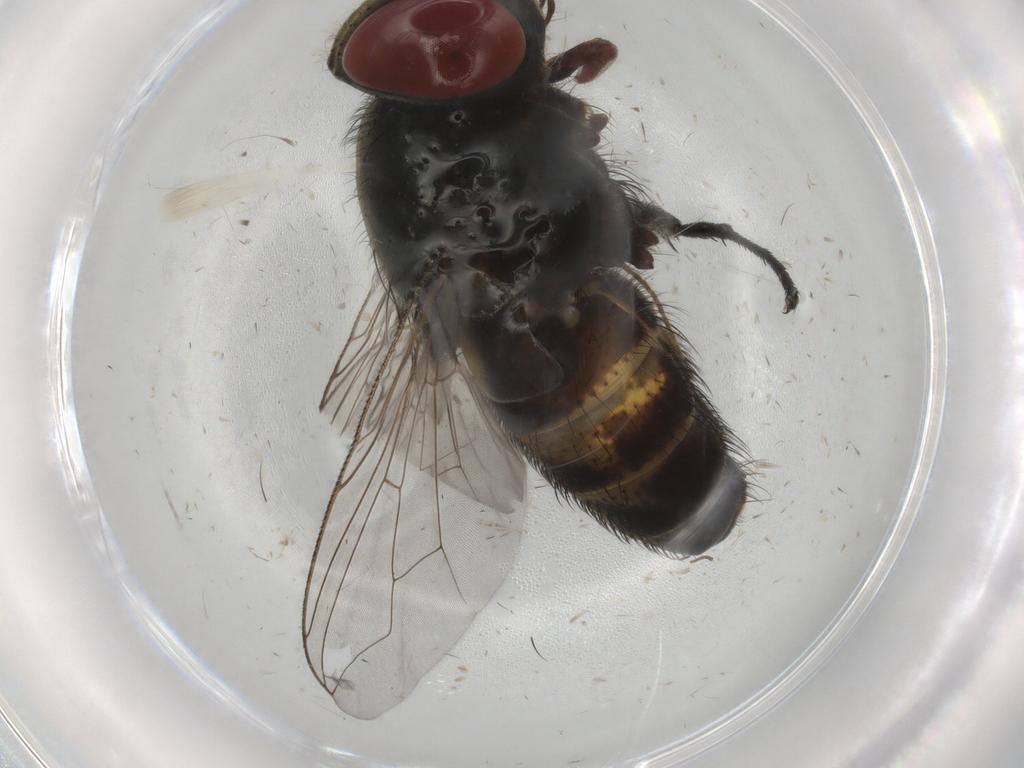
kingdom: Animalia
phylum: Arthropoda
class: Insecta
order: Diptera
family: Sarcophagidae
